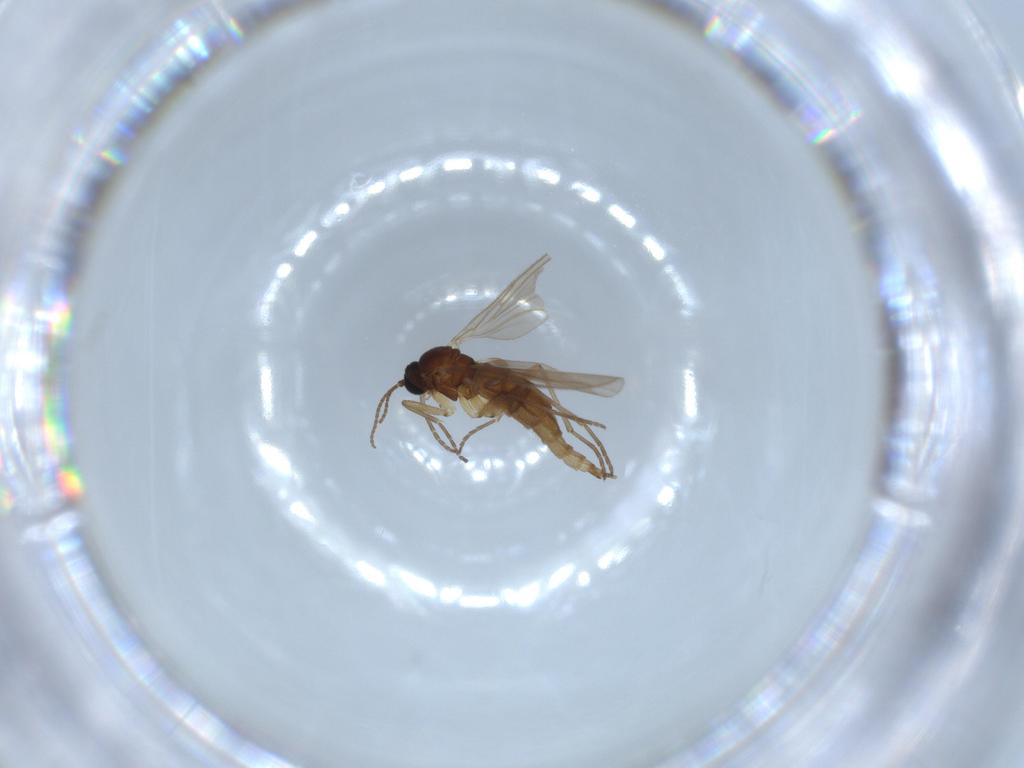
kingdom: Animalia
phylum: Arthropoda
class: Insecta
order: Diptera
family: Sciaridae
